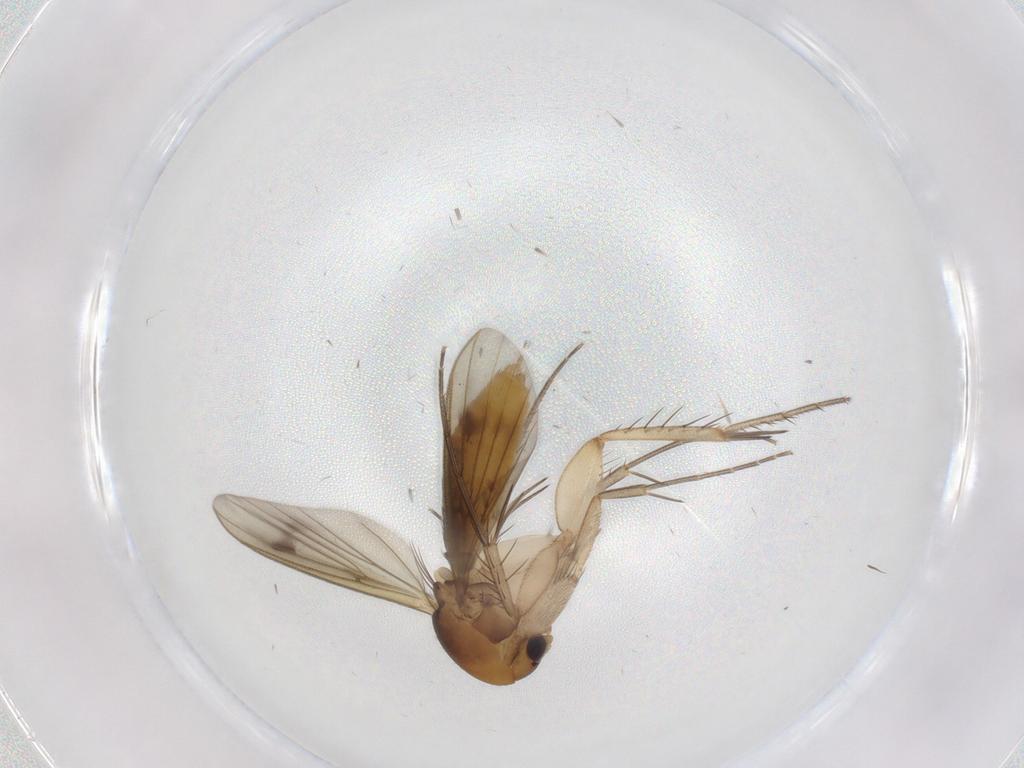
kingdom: Animalia
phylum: Arthropoda
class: Insecta
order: Diptera
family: Mycetophilidae
